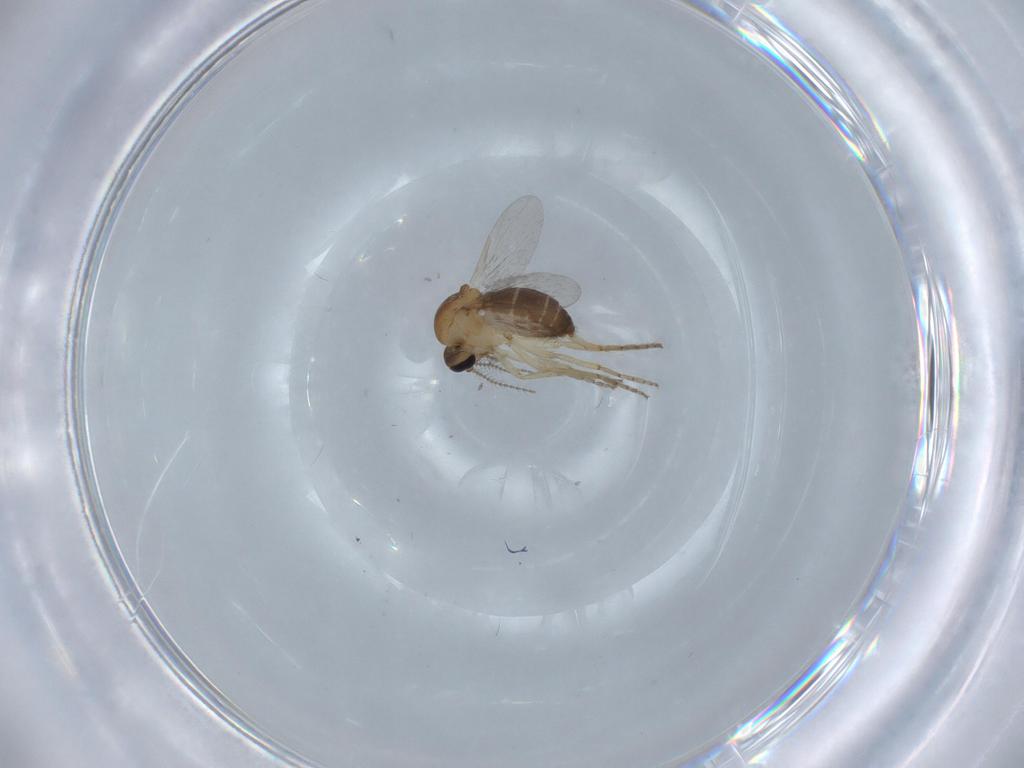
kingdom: Animalia
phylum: Arthropoda
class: Insecta
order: Diptera
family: Ceratopogonidae
